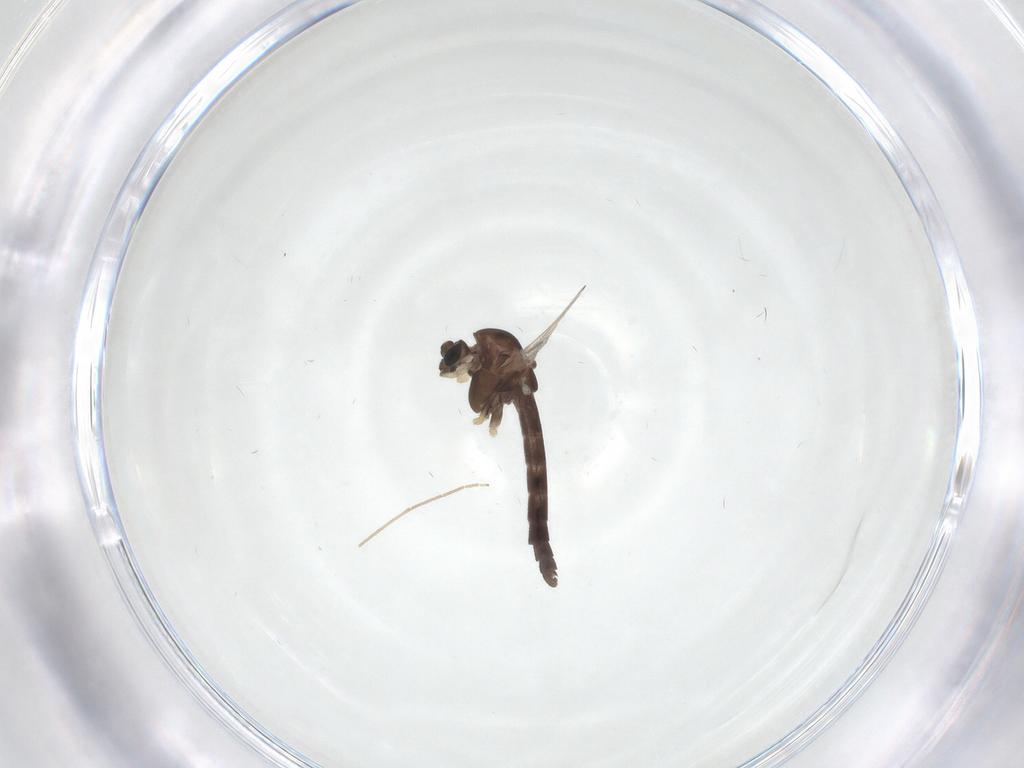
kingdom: Animalia
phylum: Arthropoda
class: Insecta
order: Diptera
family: Chironomidae
